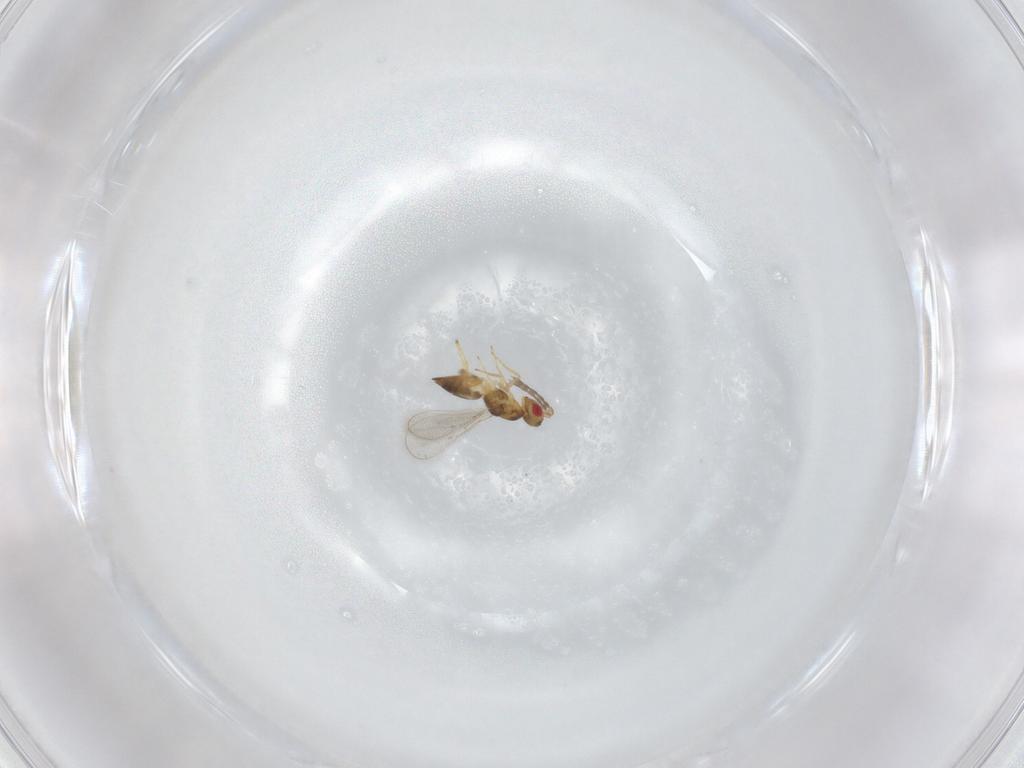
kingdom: Animalia
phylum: Arthropoda
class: Insecta
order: Hymenoptera
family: Eulophidae
